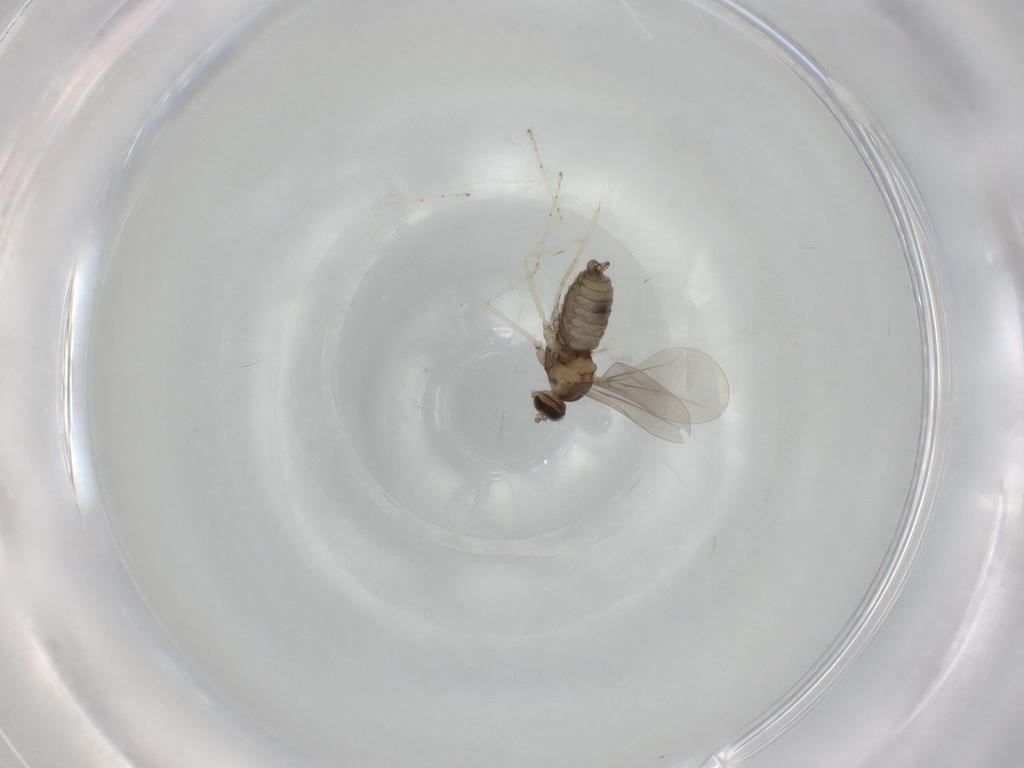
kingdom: Animalia
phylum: Arthropoda
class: Insecta
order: Diptera
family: Cecidomyiidae
